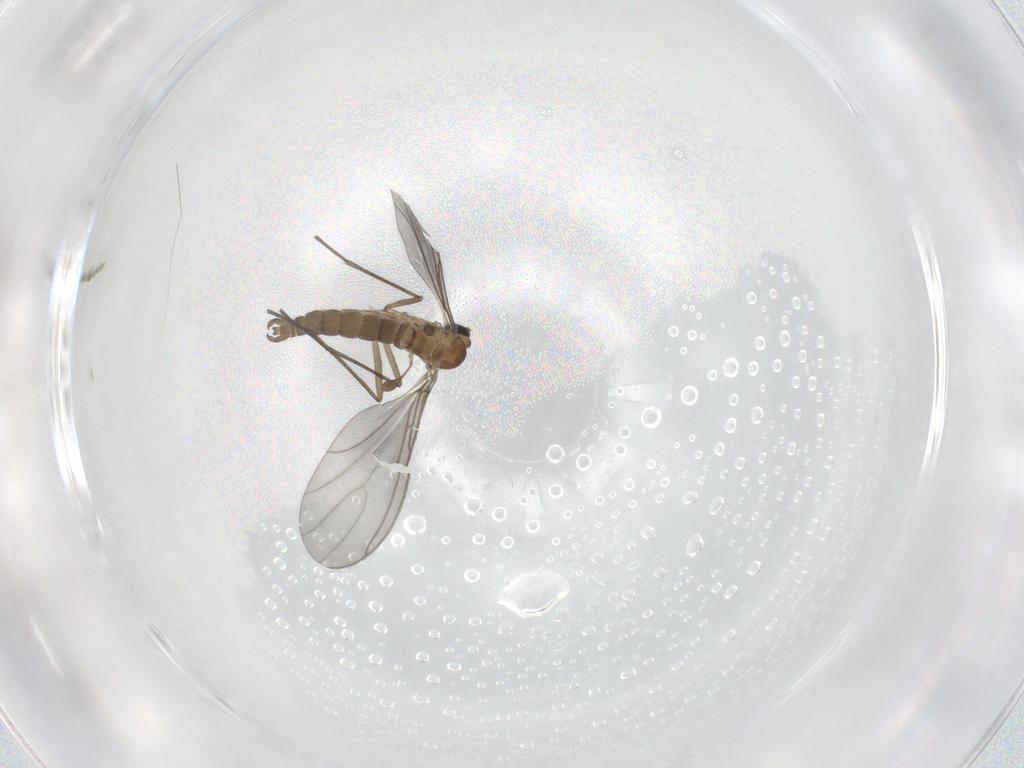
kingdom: Animalia
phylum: Arthropoda
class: Insecta
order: Diptera
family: Sciaridae
